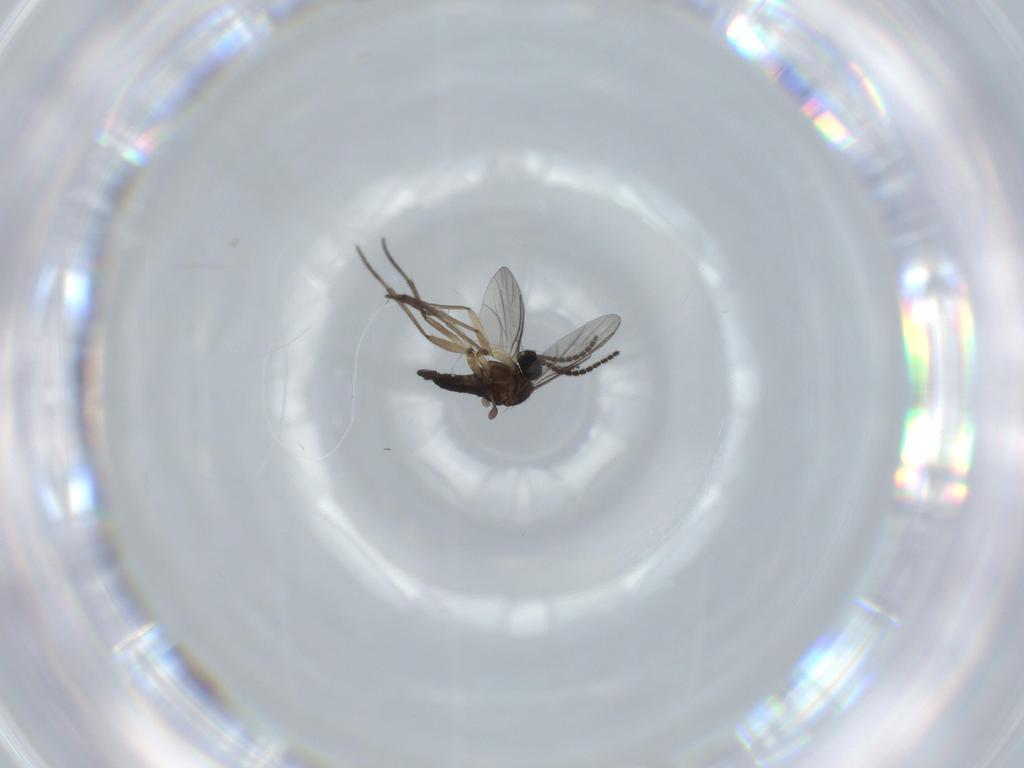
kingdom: Animalia
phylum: Arthropoda
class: Insecta
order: Diptera
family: Sciaridae
